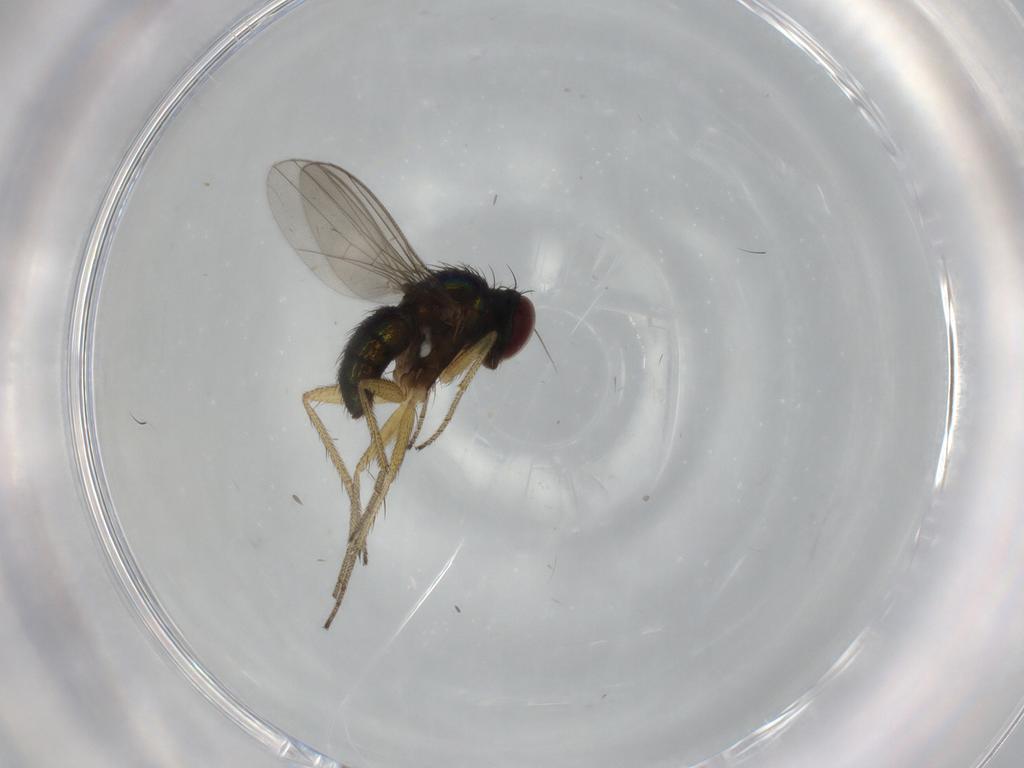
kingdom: Animalia
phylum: Arthropoda
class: Insecta
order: Diptera
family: Dolichopodidae
